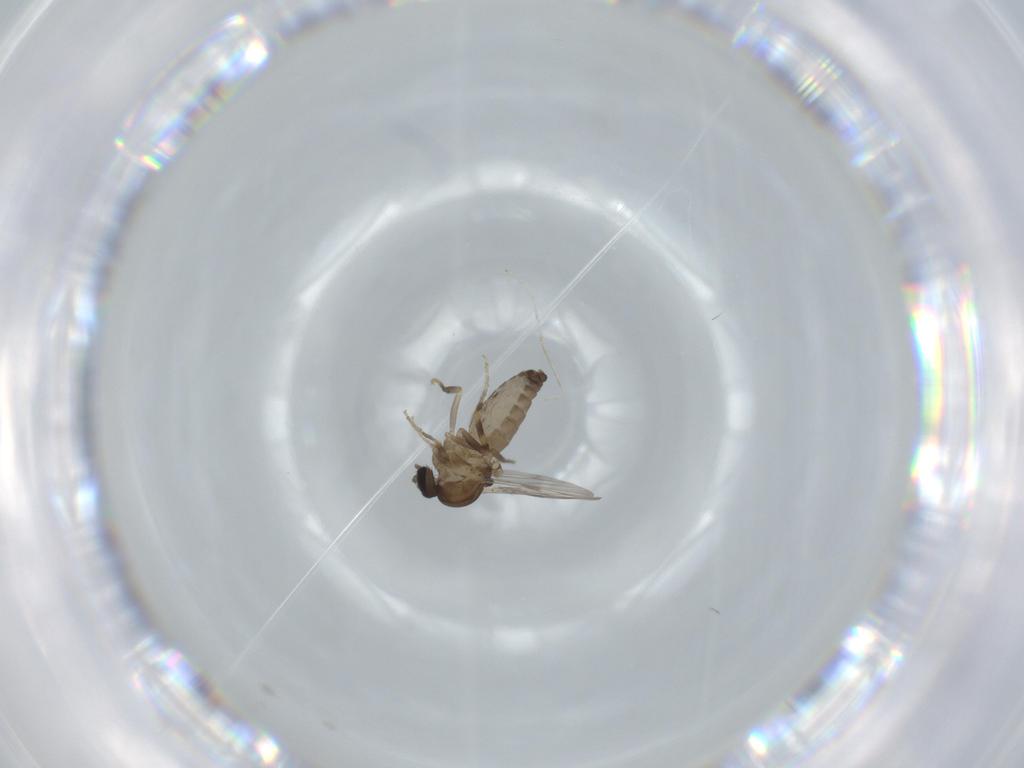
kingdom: Animalia
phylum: Arthropoda
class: Insecta
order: Diptera
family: Ceratopogonidae
